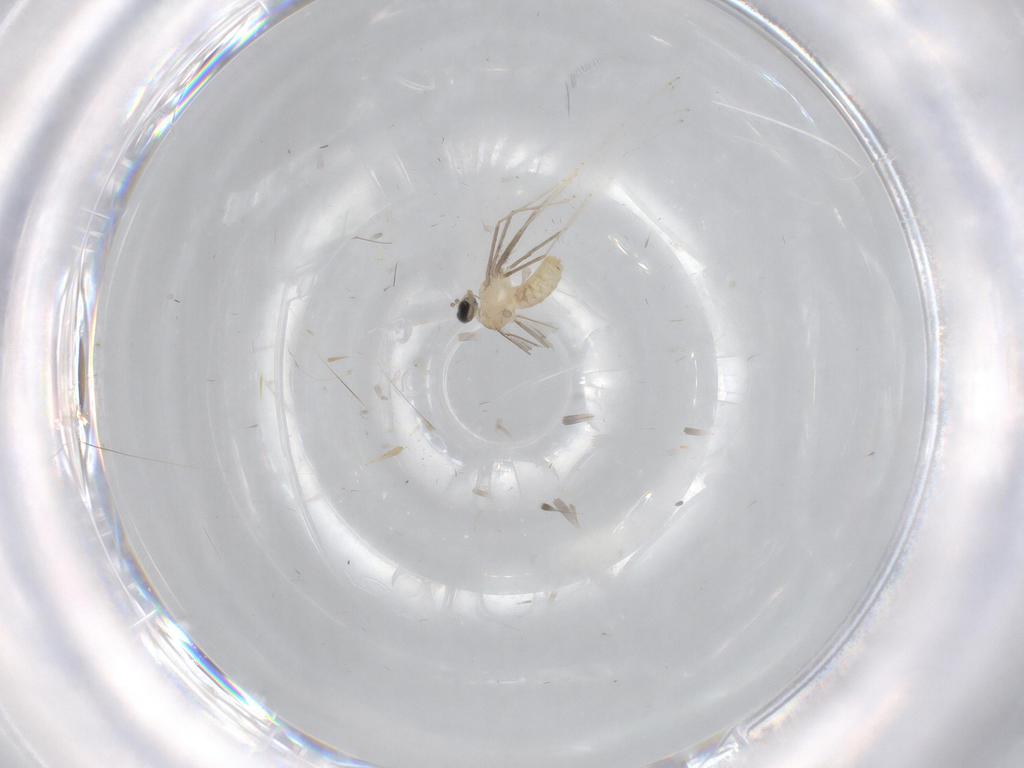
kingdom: Animalia
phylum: Arthropoda
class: Insecta
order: Diptera
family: Cecidomyiidae
